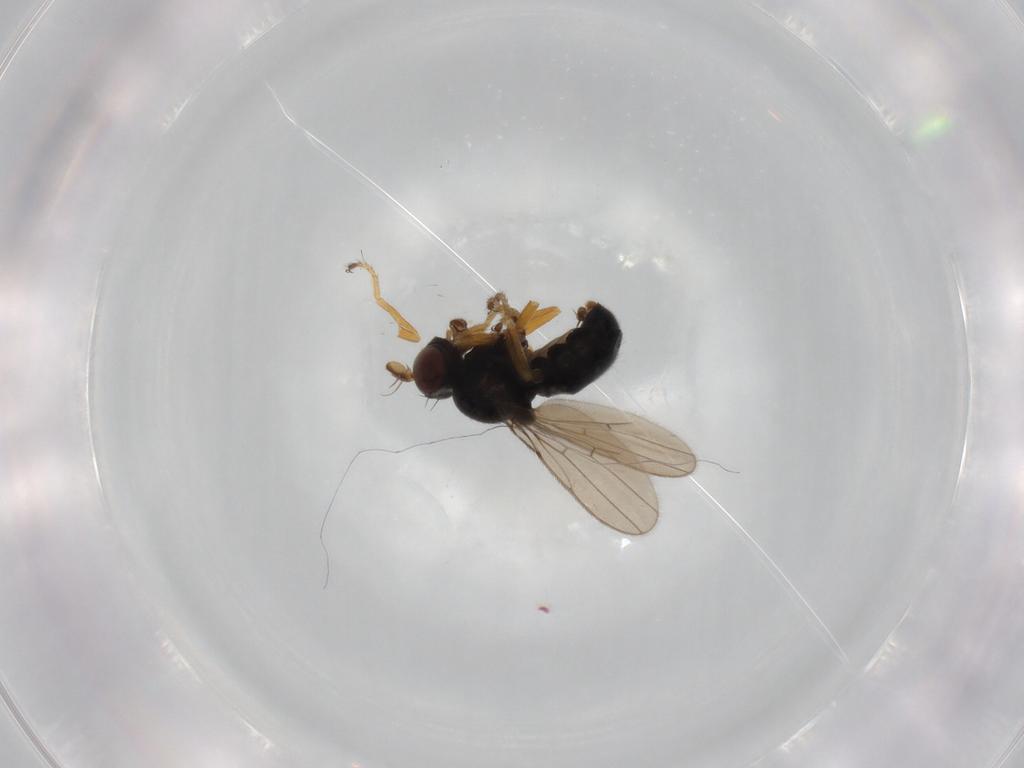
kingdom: Animalia
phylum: Arthropoda
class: Insecta
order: Diptera
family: Ephydridae
